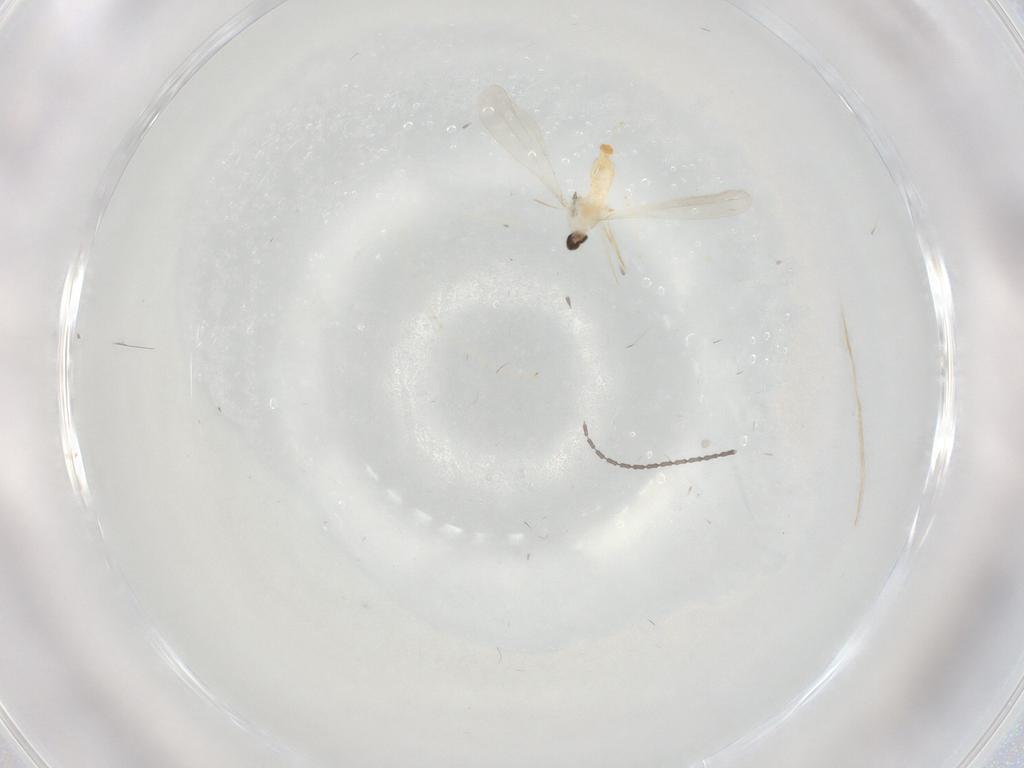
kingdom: Animalia
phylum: Arthropoda
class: Insecta
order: Diptera
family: Cecidomyiidae
